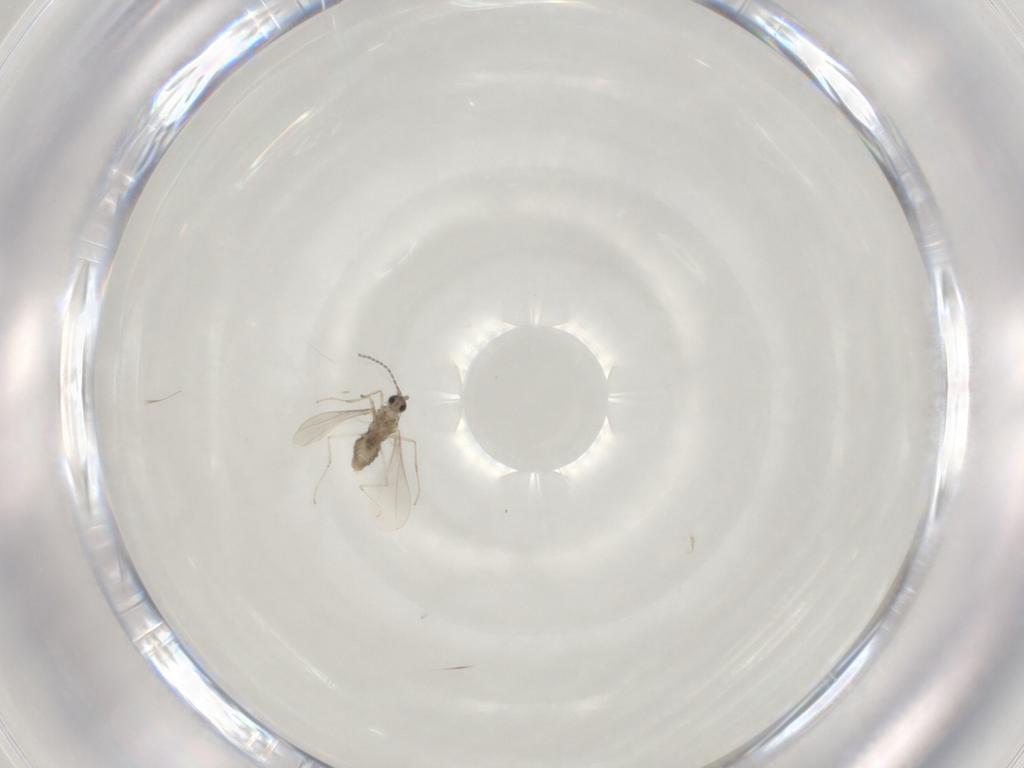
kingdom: Animalia
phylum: Arthropoda
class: Insecta
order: Diptera
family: Cecidomyiidae
